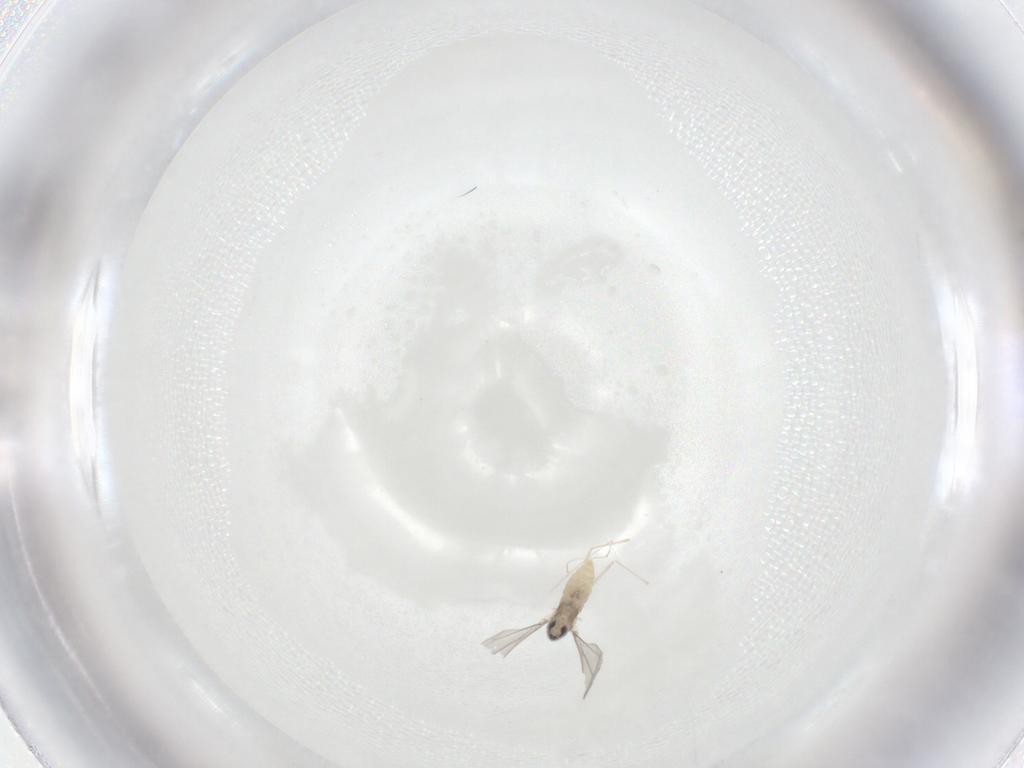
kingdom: Animalia
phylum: Arthropoda
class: Insecta
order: Diptera
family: Cecidomyiidae
